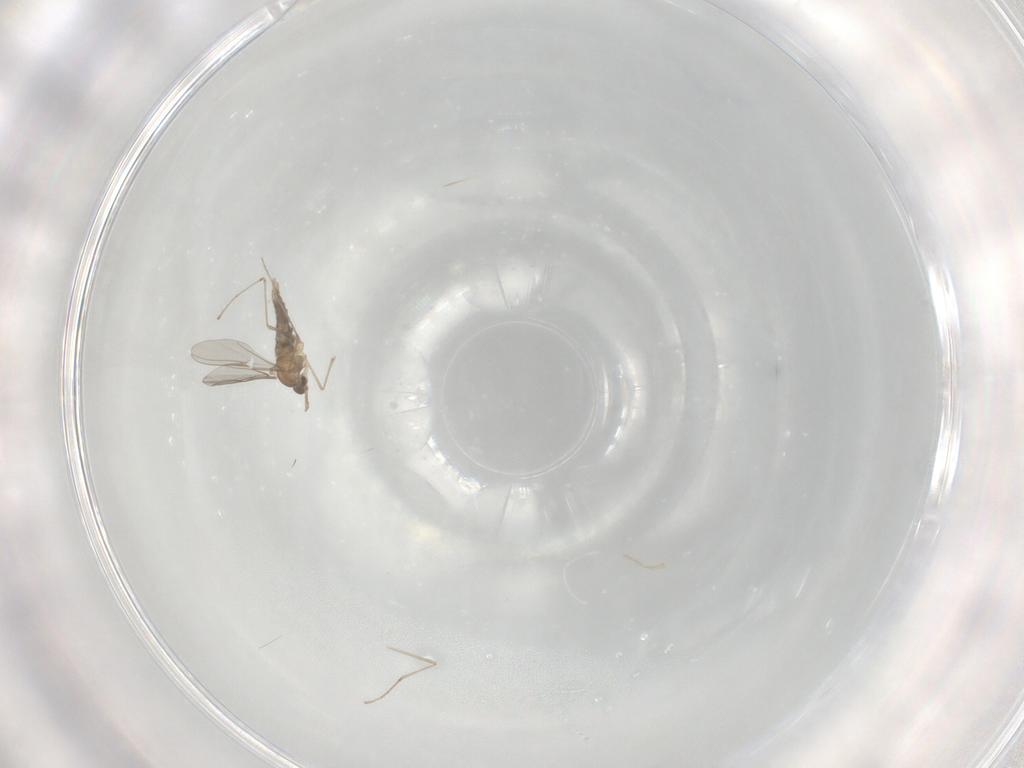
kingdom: Animalia
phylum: Arthropoda
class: Insecta
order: Diptera
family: Cecidomyiidae
